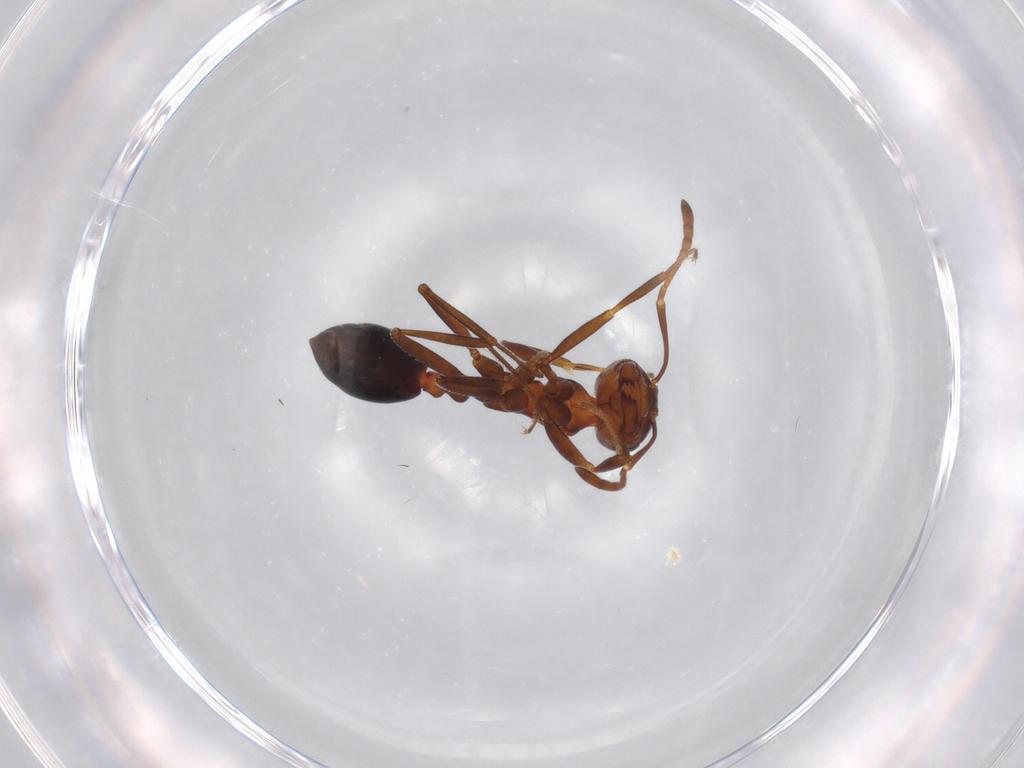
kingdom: Animalia
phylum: Arthropoda
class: Insecta
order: Hymenoptera
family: Formicidae
